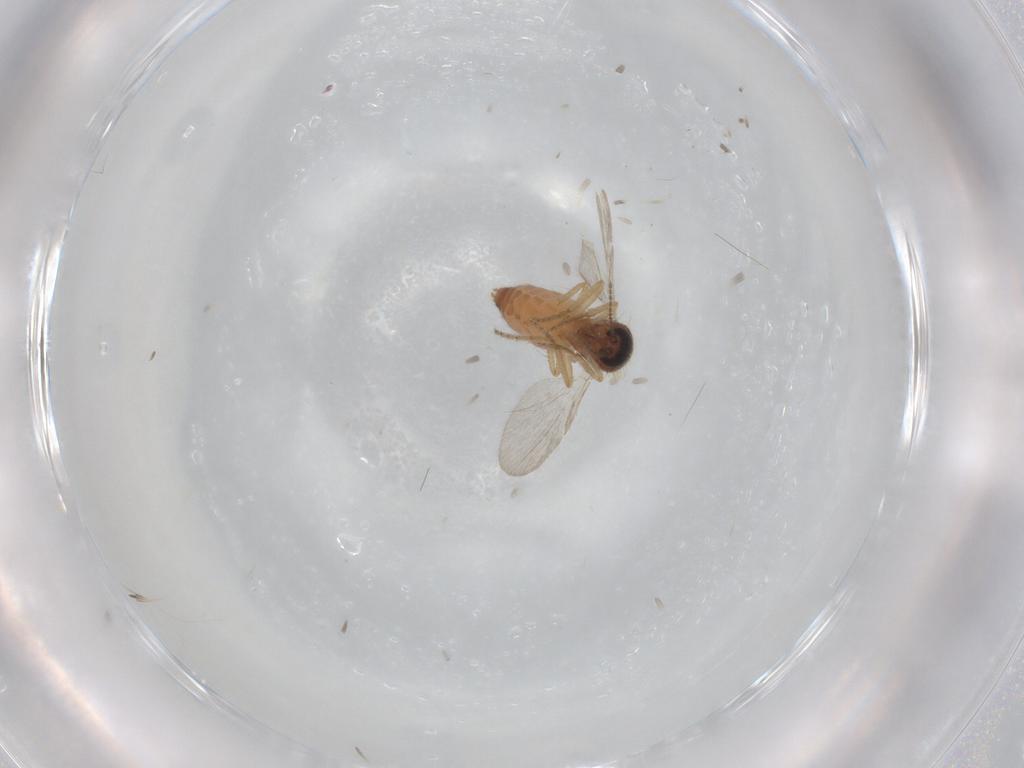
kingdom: Animalia
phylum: Arthropoda
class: Insecta
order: Diptera
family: Ceratopogonidae
